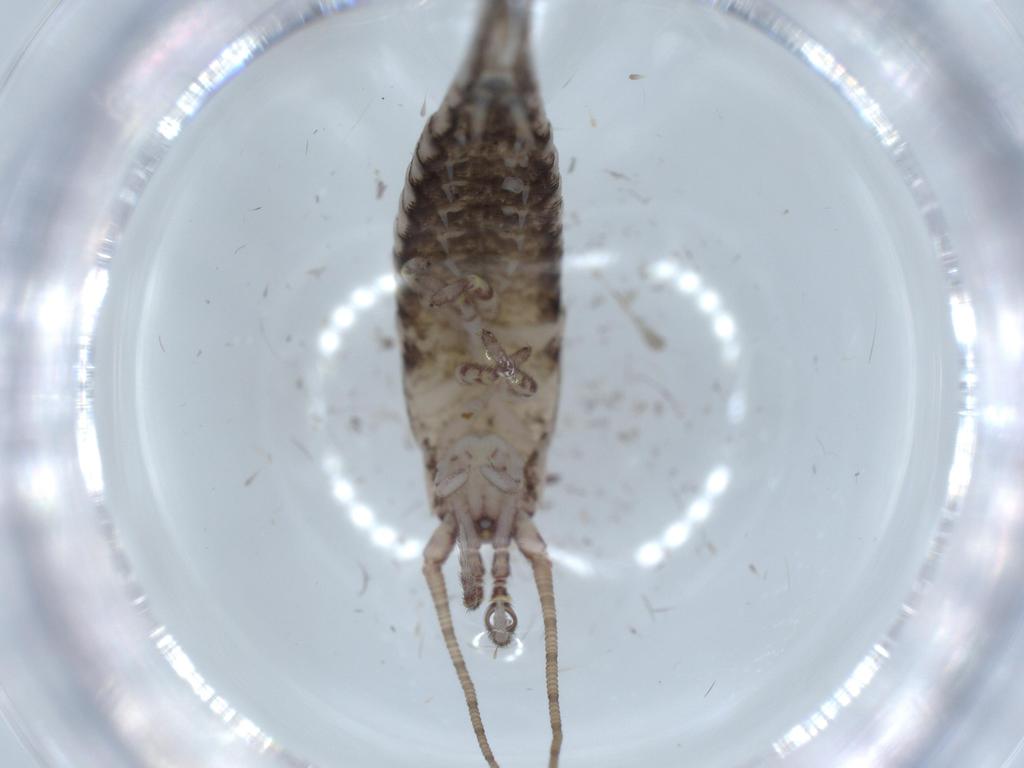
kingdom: Animalia
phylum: Arthropoda
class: Insecta
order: Archaeognatha
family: Machilidae
